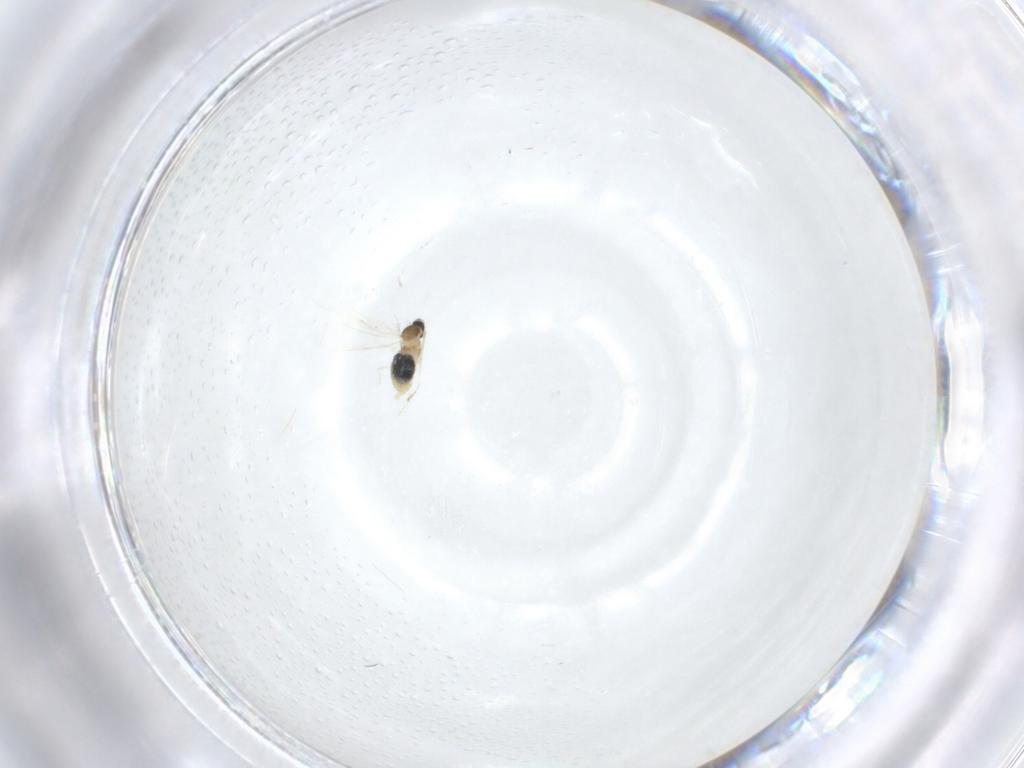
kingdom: Animalia
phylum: Arthropoda
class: Insecta
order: Diptera
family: Cecidomyiidae
